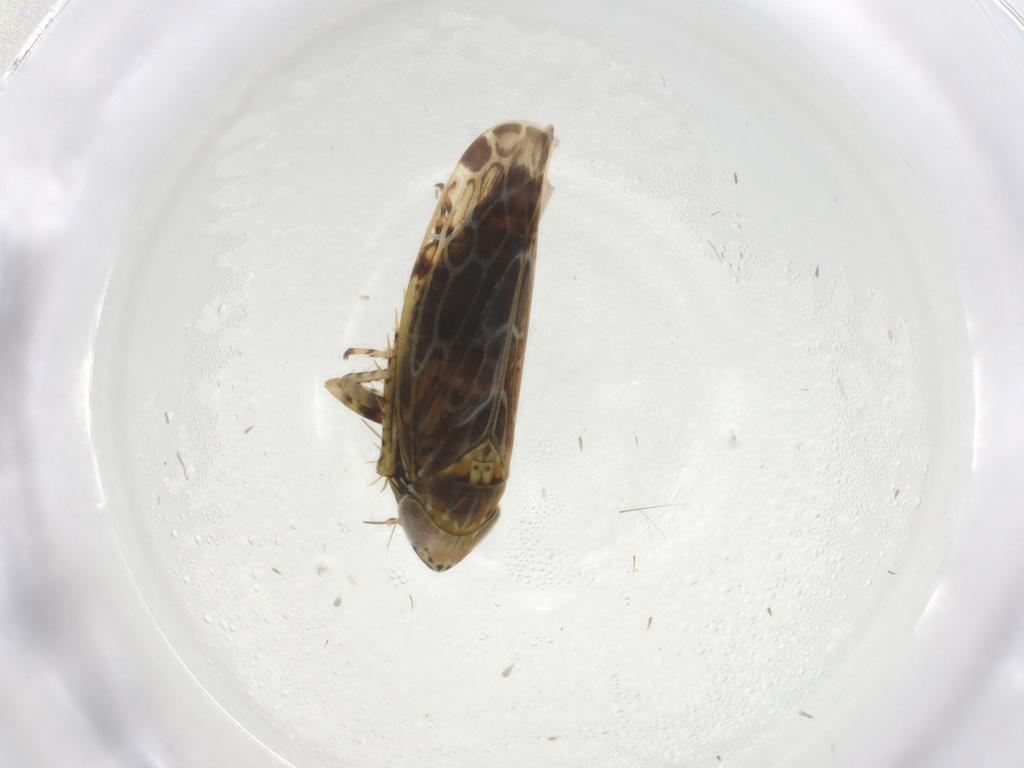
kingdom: Animalia
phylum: Arthropoda
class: Insecta
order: Hemiptera
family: Cicadellidae
